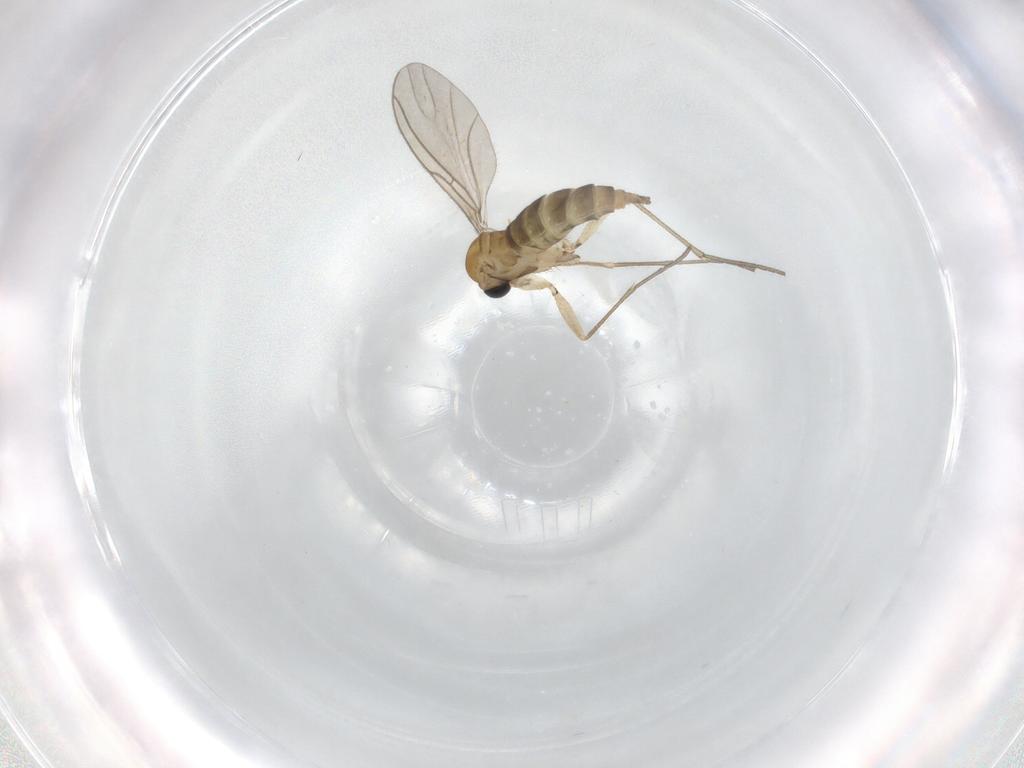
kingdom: Animalia
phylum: Arthropoda
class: Insecta
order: Diptera
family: Sciaridae
